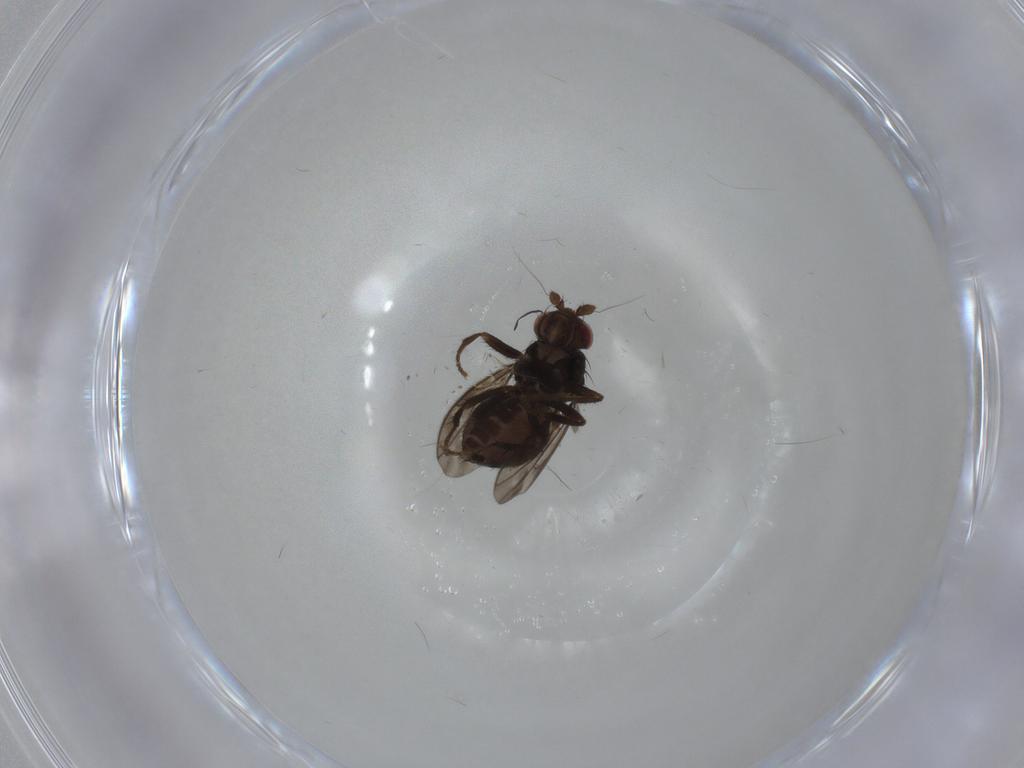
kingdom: Animalia
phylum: Arthropoda
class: Insecta
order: Diptera
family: Sphaeroceridae
